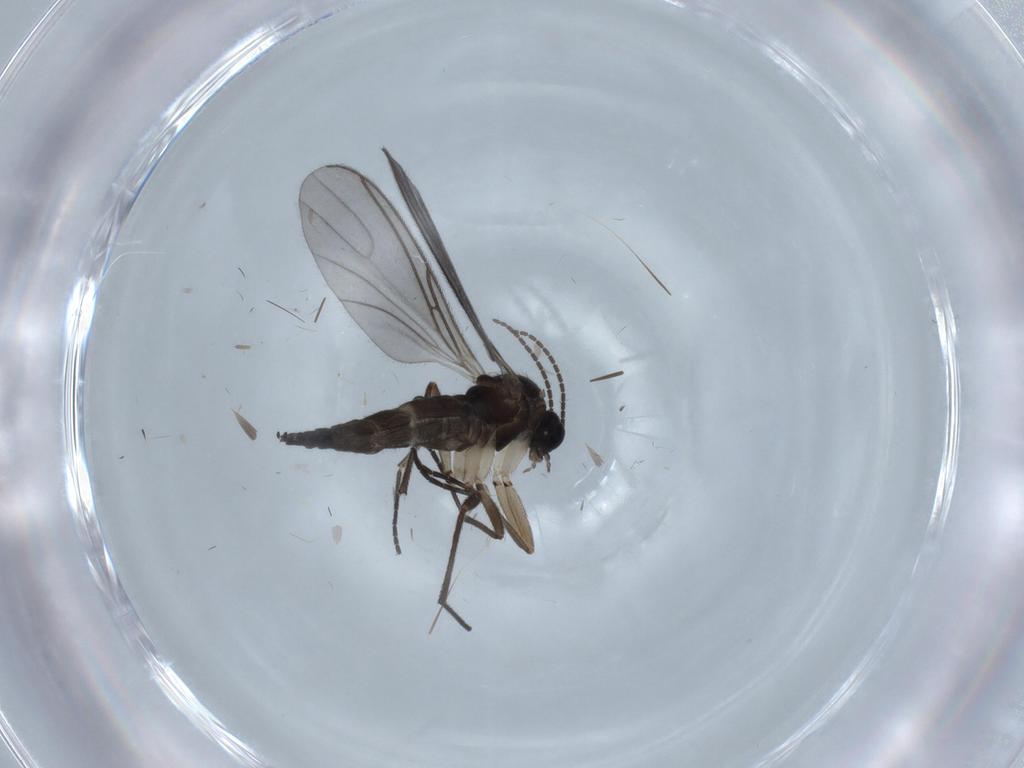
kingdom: Animalia
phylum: Arthropoda
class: Insecta
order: Diptera
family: Sciaridae
